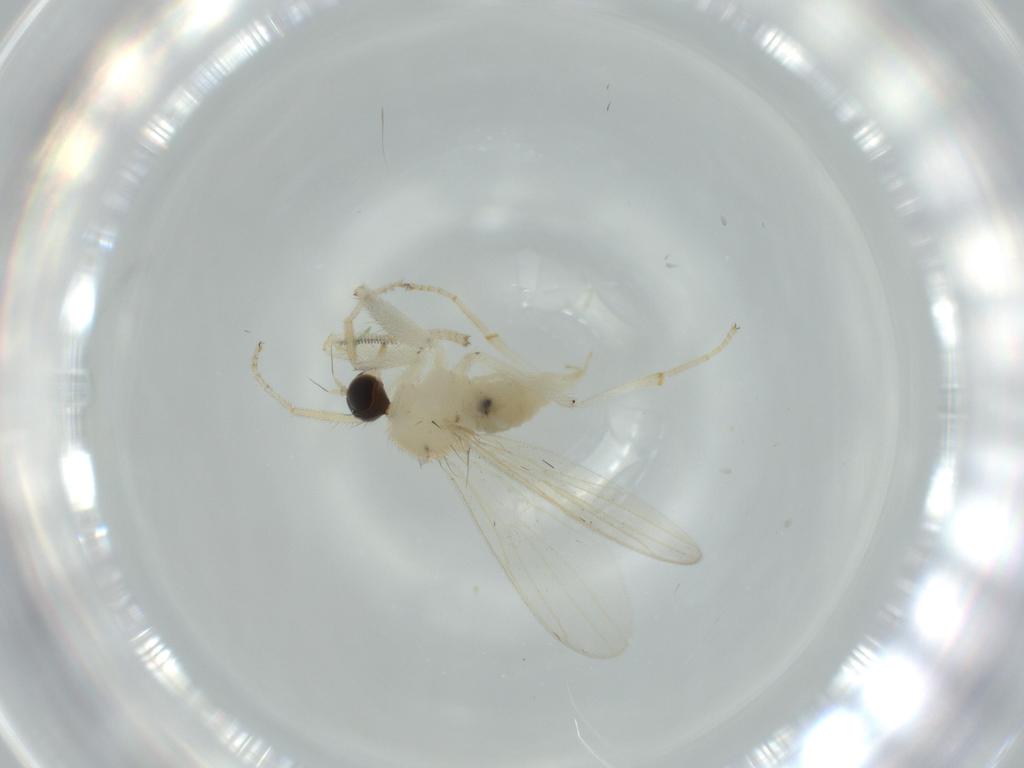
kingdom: Animalia
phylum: Arthropoda
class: Insecta
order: Diptera
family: Hybotidae
